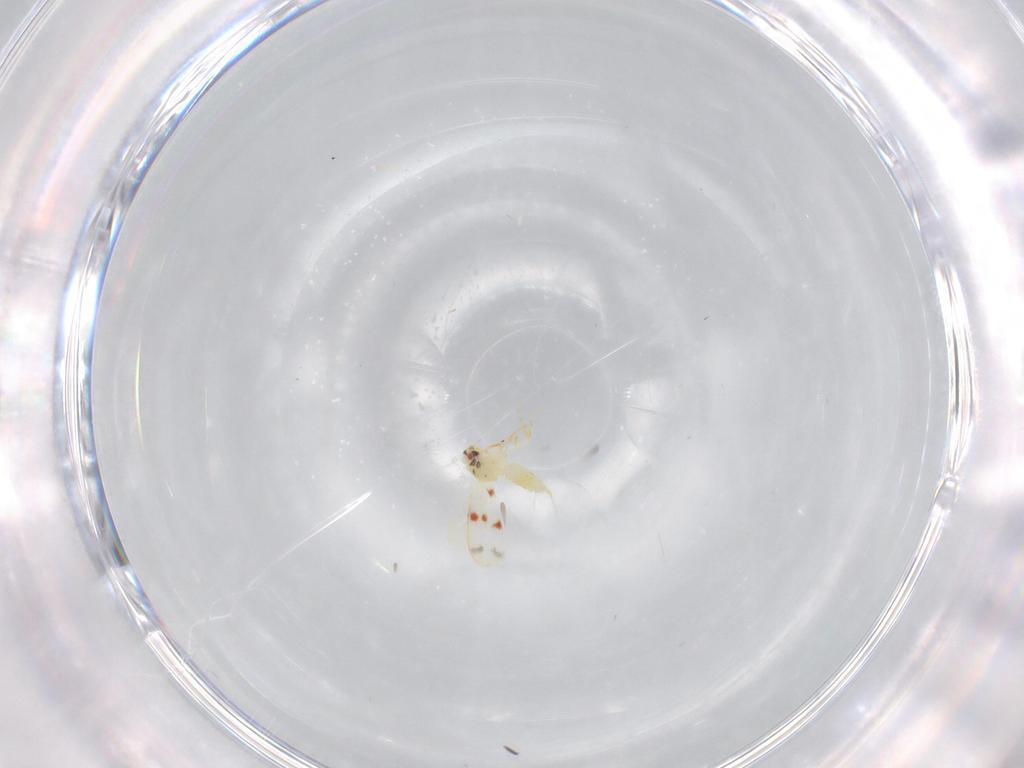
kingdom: Animalia
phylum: Arthropoda
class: Insecta
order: Hemiptera
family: Aleyrodidae
